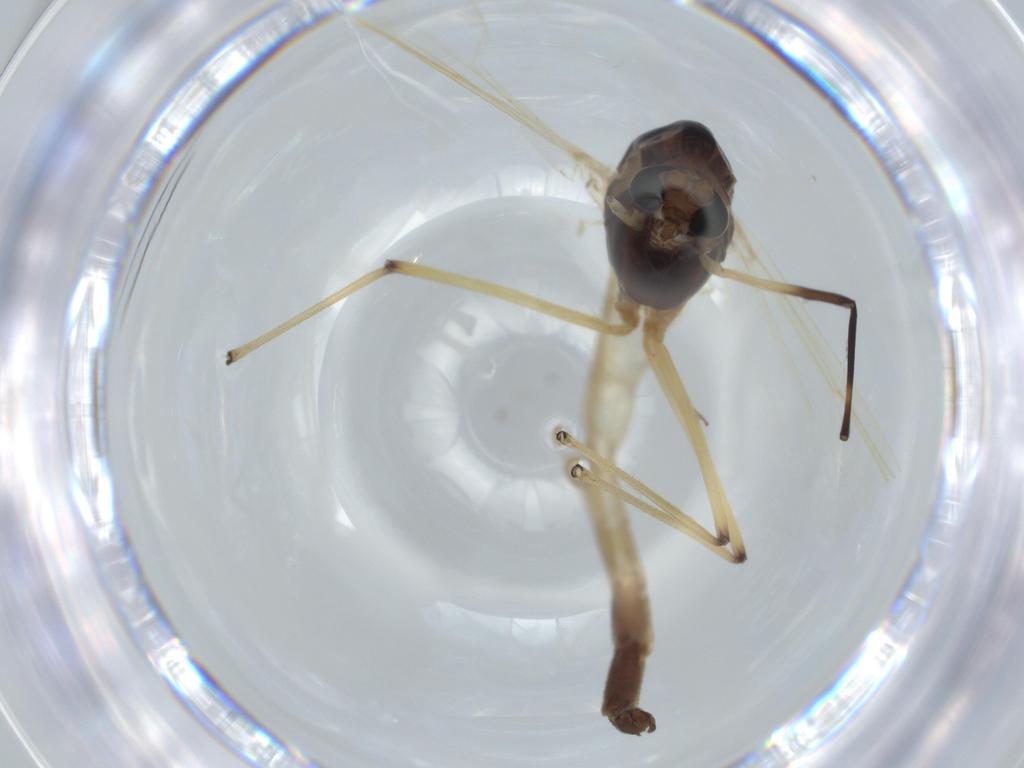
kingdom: Animalia
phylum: Arthropoda
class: Insecta
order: Diptera
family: Chironomidae
